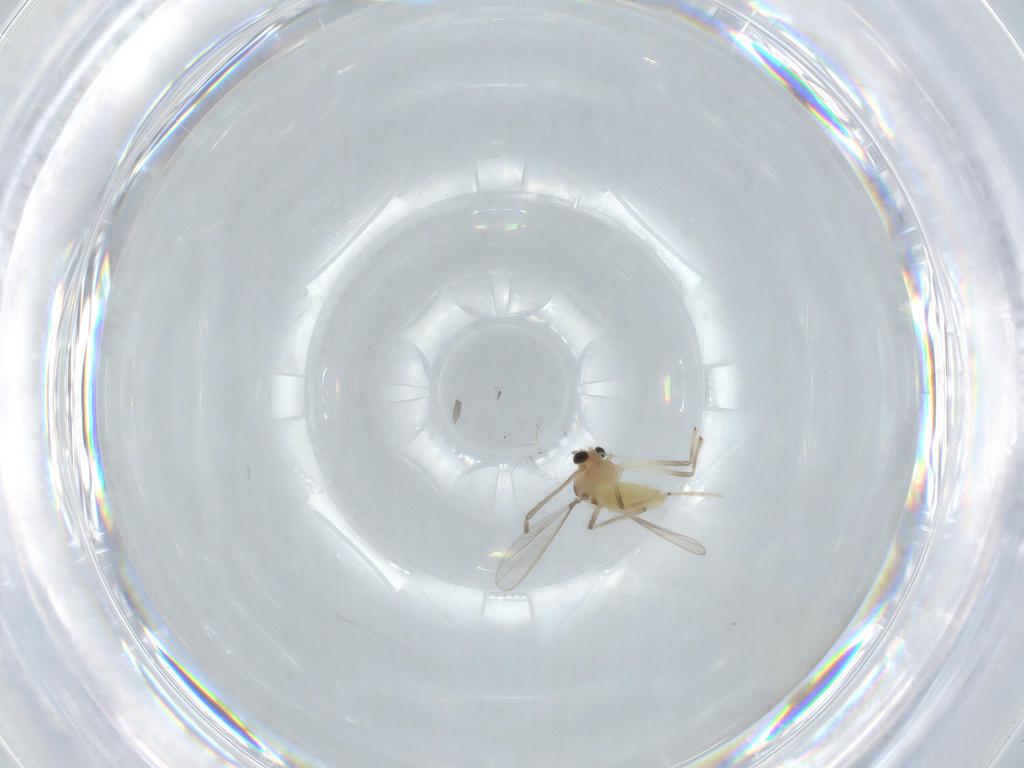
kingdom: Animalia
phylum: Arthropoda
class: Insecta
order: Diptera
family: Chironomidae
